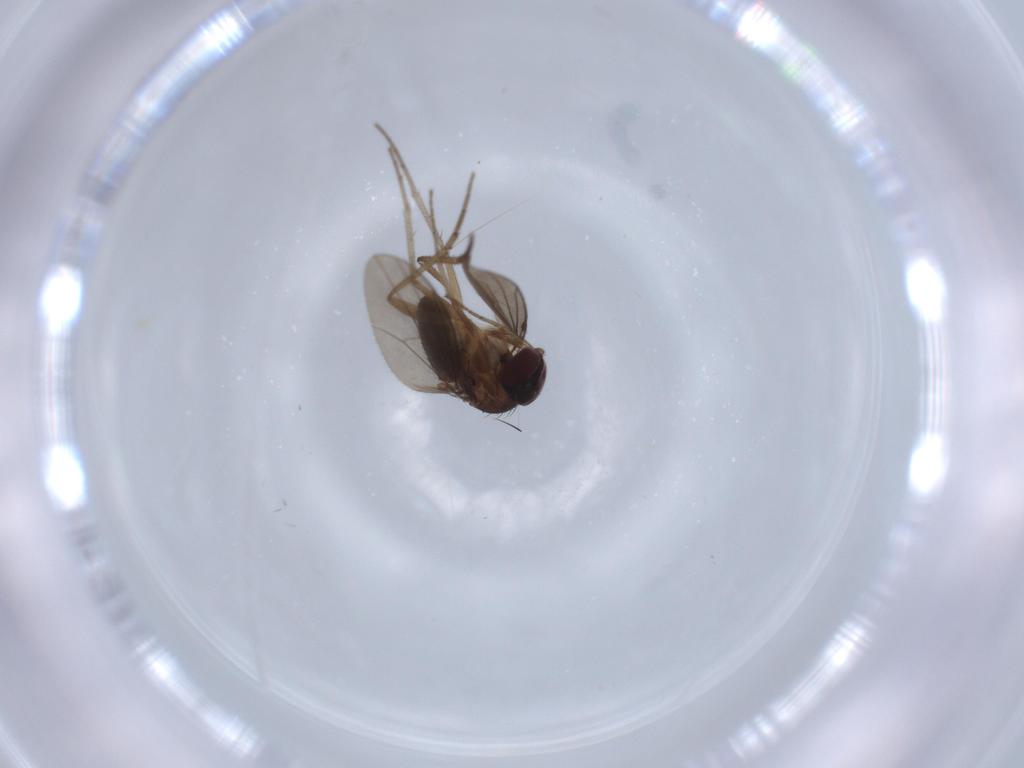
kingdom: Animalia
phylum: Arthropoda
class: Insecta
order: Diptera
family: Dolichopodidae
